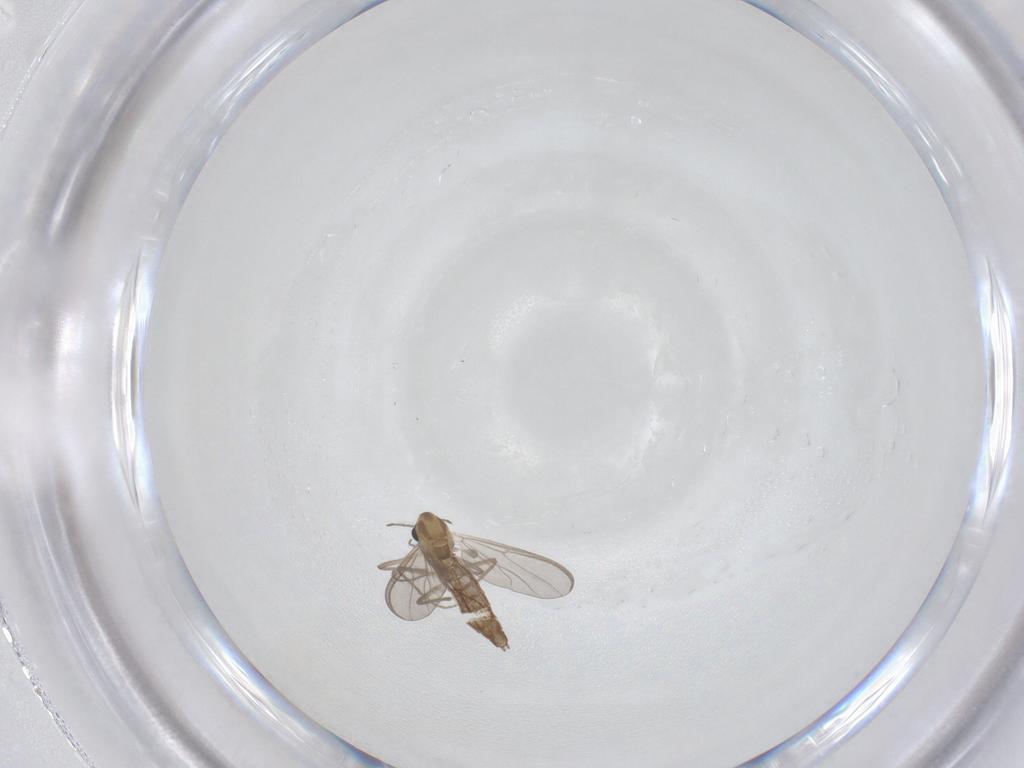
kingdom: Animalia
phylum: Arthropoda
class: Insecta
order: Diptera
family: Chironomidae
